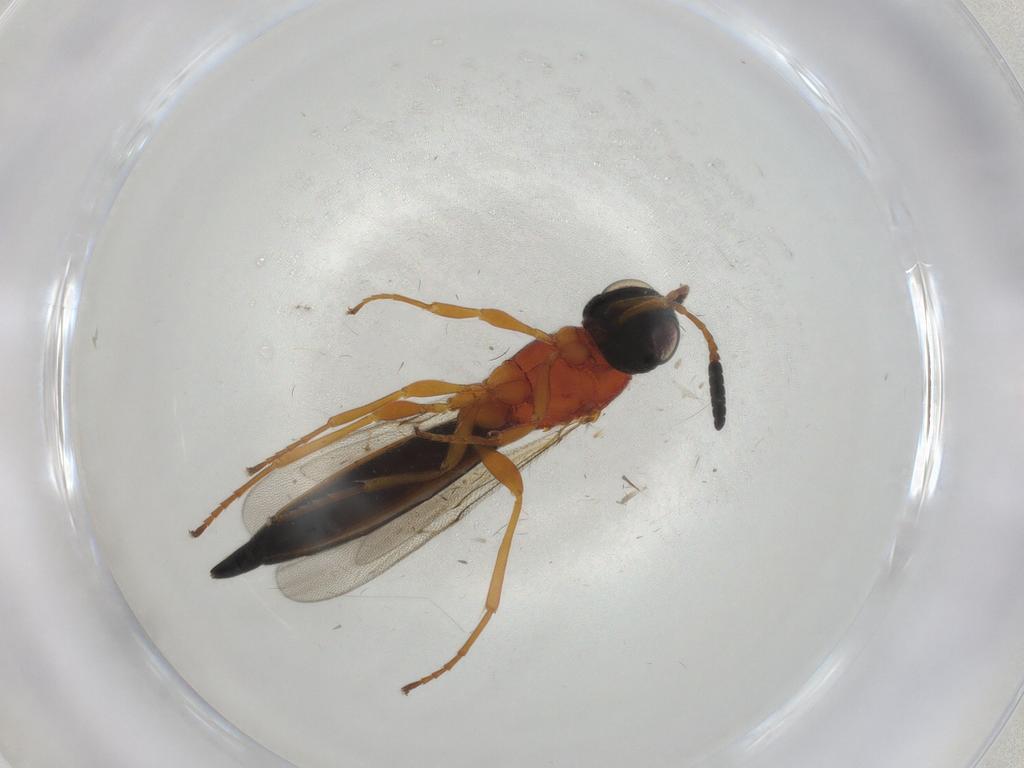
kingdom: Animalia
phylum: Arthropoda
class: Insecta
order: Hymenoptera
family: Scelionidae
